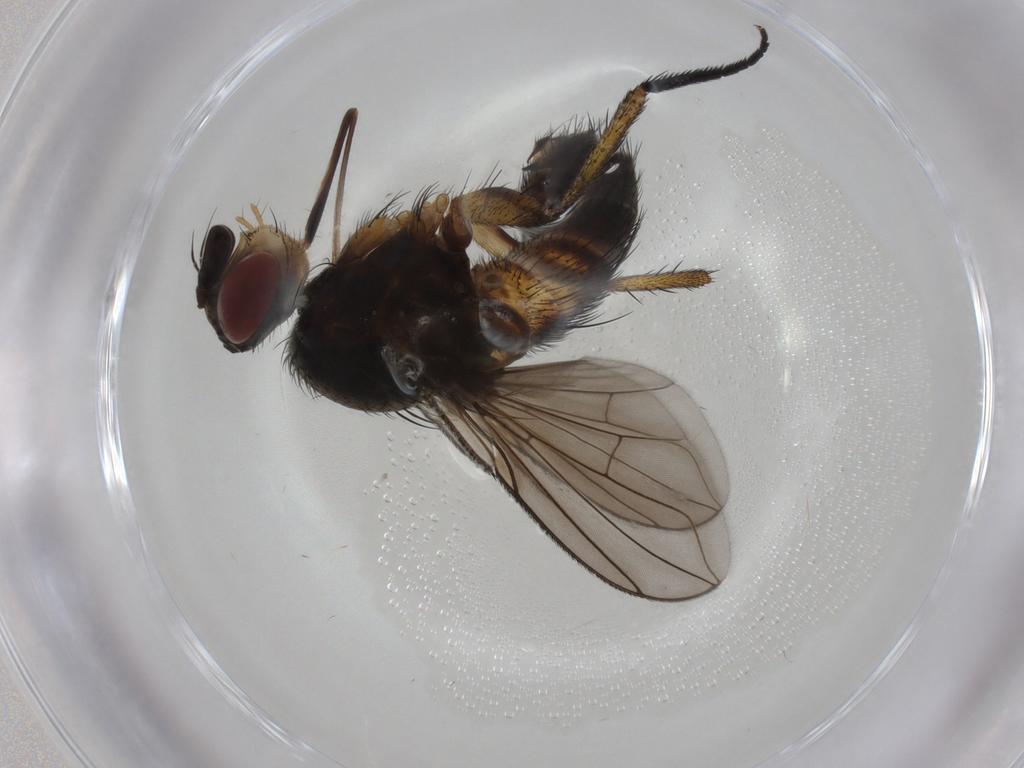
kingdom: Animalia
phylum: Arthropoda
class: Insecta
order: Diptera
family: Tachinidae
